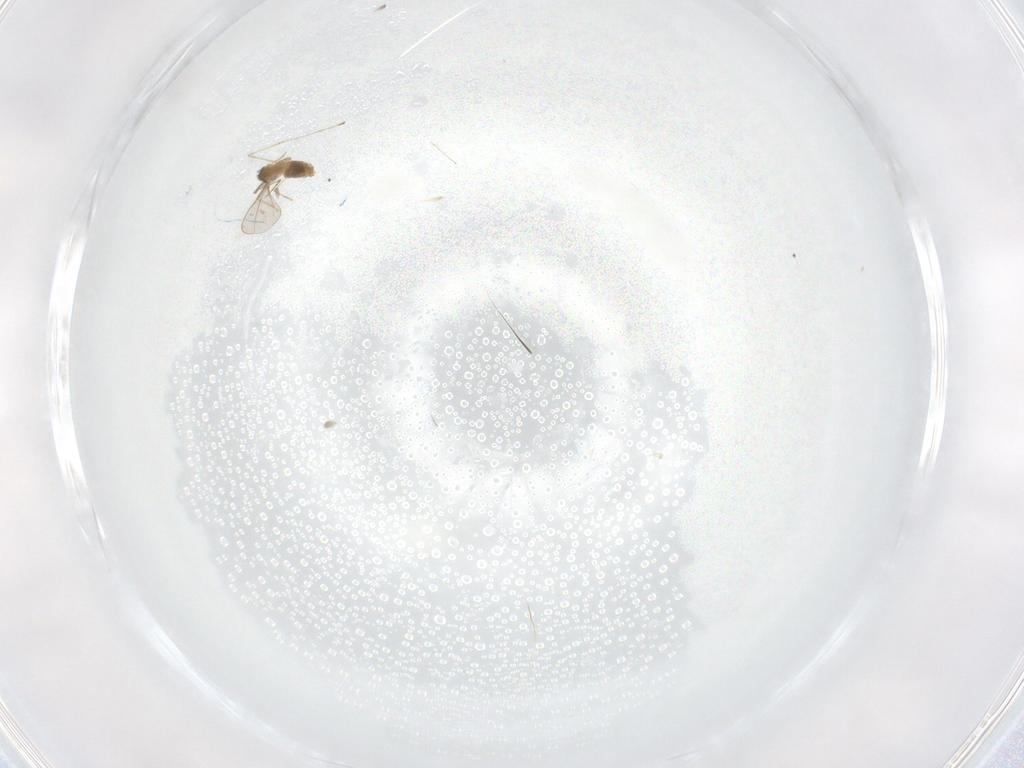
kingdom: Animalia
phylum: Arthropoda
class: Insecta
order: Diptera
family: Cecidomyiidae
